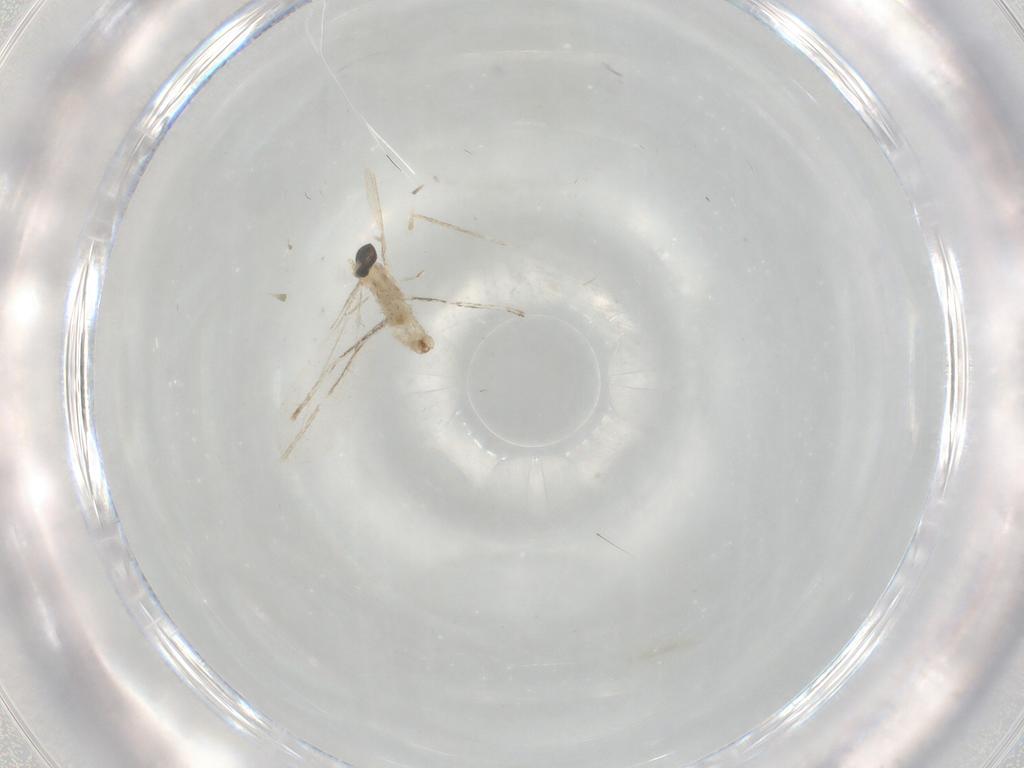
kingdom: Animalia
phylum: Arthropoda
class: Insecta
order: Diptera
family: Cecidomyiidae
